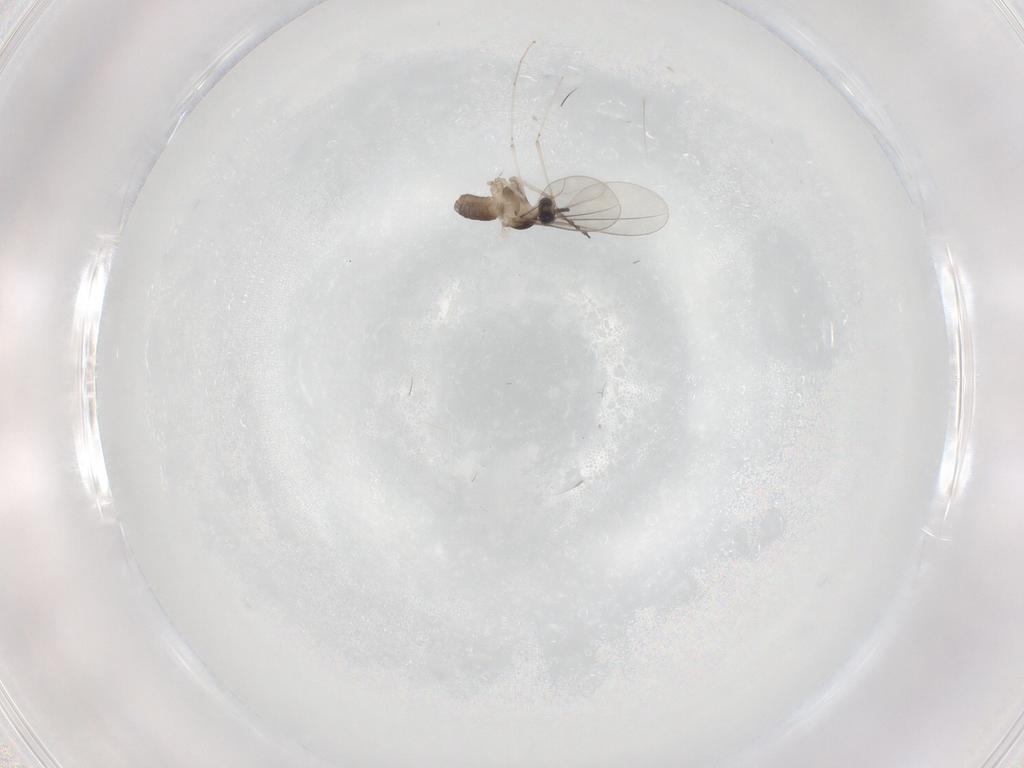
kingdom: Animalia
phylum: Arthropoda
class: Insecta
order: Diptera
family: Cecidomyiidae
